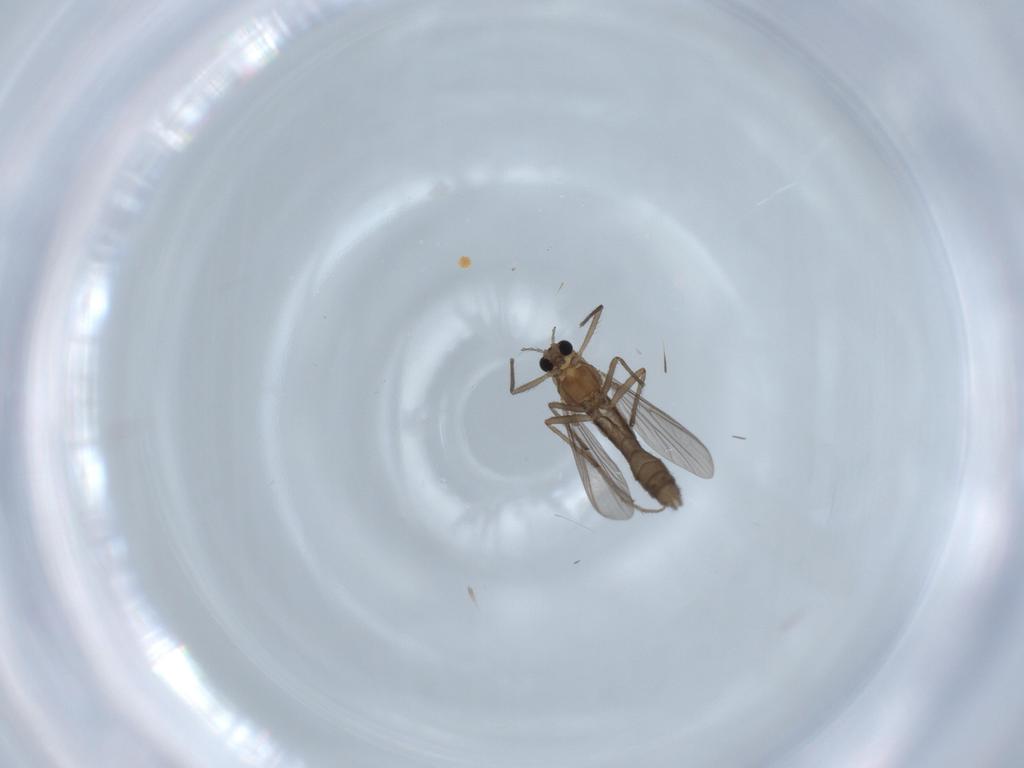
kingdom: Animalia
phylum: Arthropoda
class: Insecta
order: Diptera
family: Chironomidae
